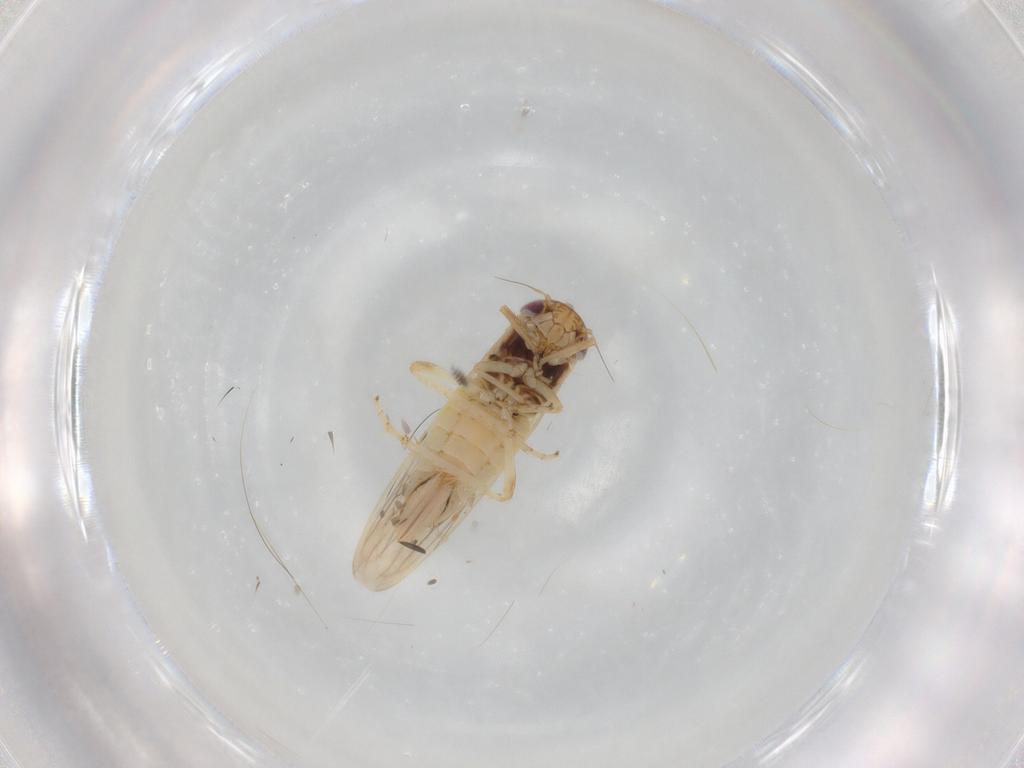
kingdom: Animalia
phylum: Arthropoda
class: Insecta
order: Hemiptera
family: Cicadellidae
